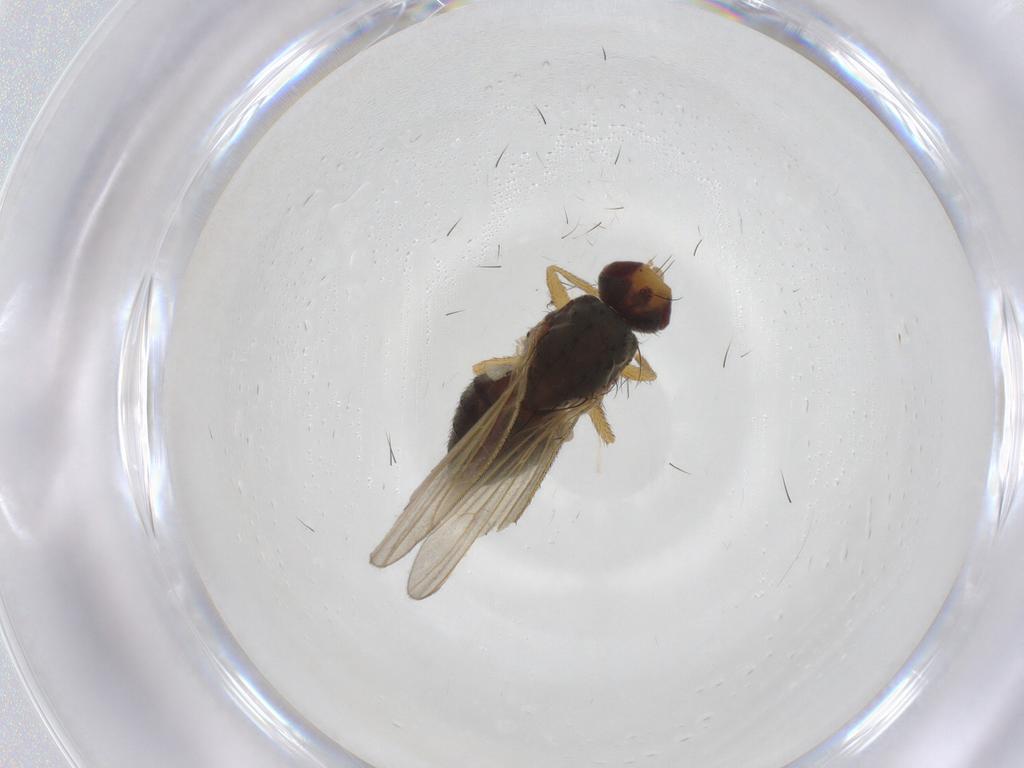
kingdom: Animalia
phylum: Arthropoda
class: Insecta
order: Diptera
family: Heleomyzidae
